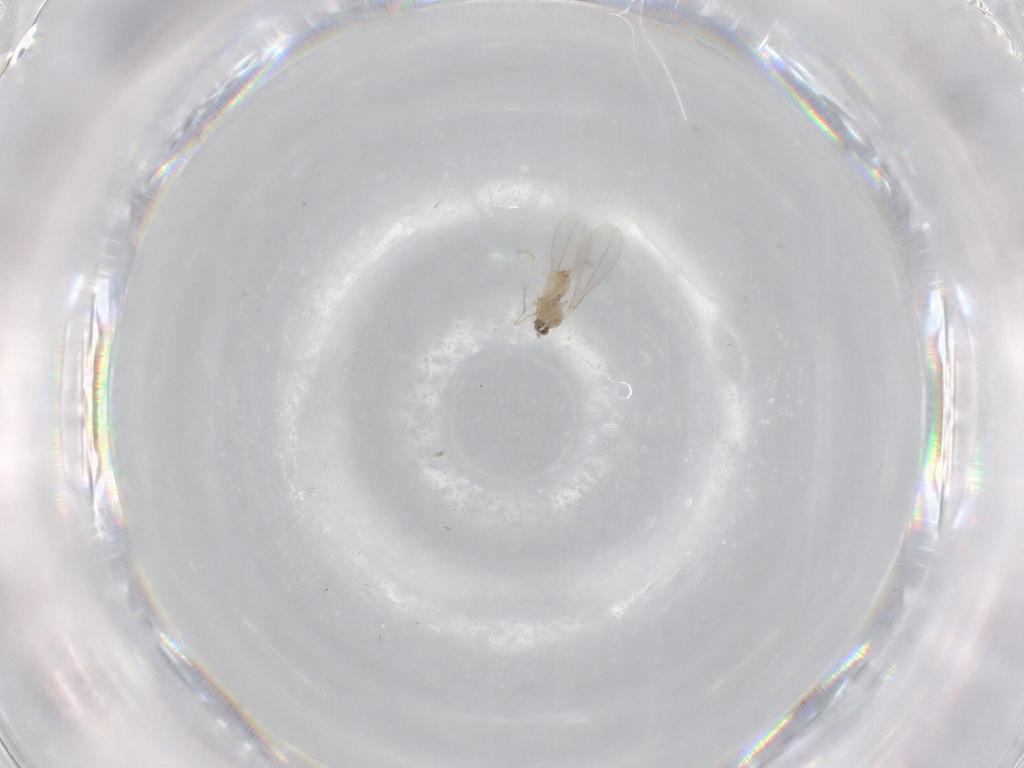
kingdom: Animalia
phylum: Arthropoda
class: Insecta
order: Diptera
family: Cecidomyiidae
